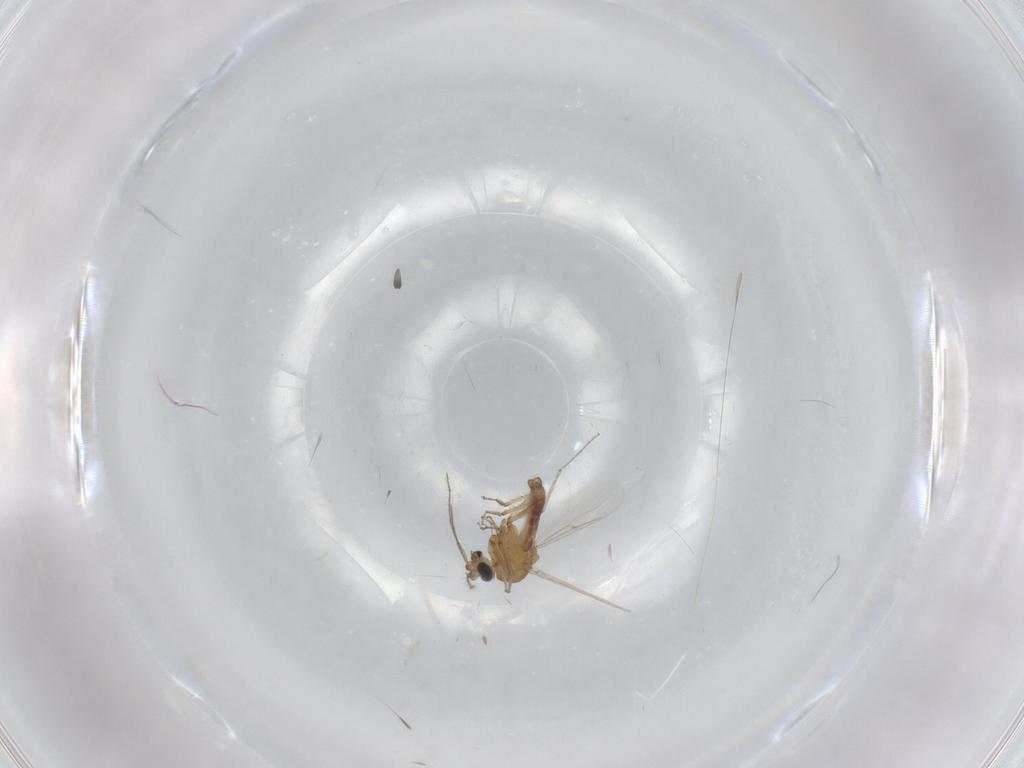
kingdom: Animalia
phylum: Arthropoda
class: Insecta
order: Diptera
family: Ceratopogonidae
